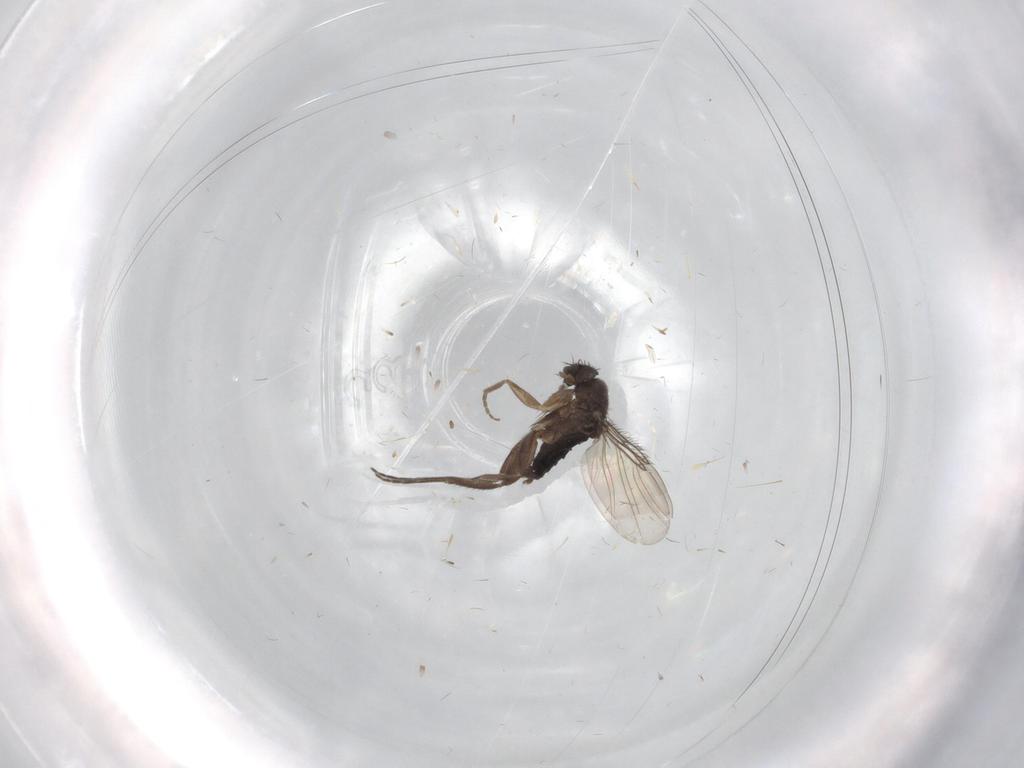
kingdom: Animalia
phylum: Arthropoda
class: Insecta
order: Diptera
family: Phoridae
